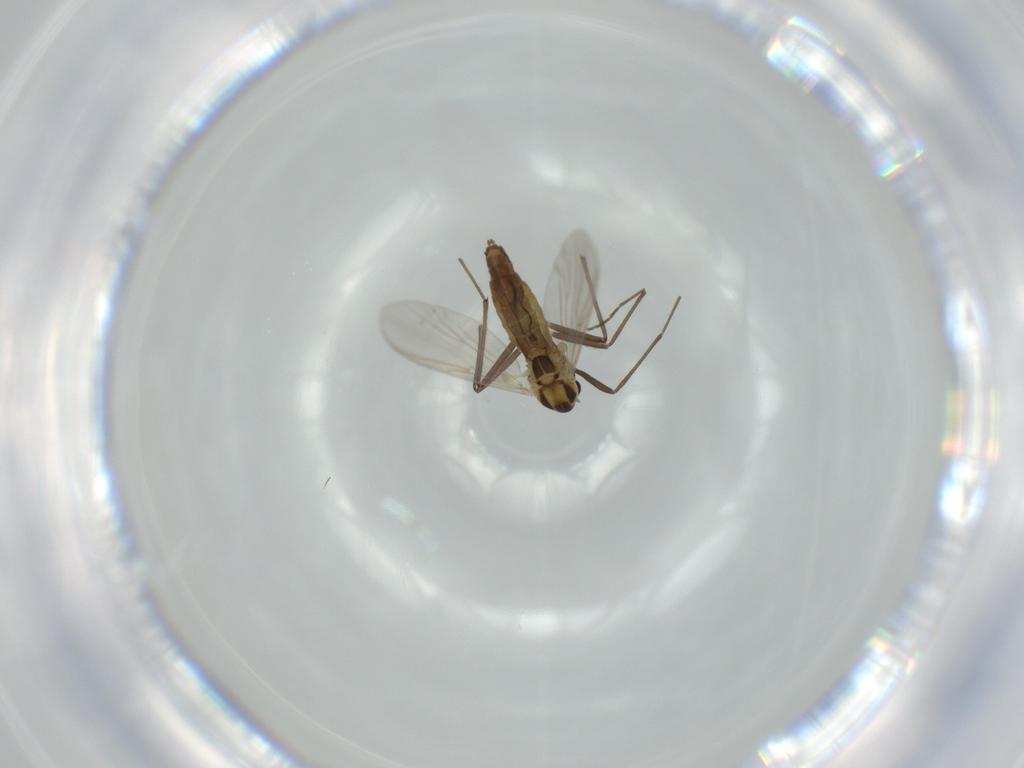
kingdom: Animalia
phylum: Arthropoda
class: Insecta
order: Diptera
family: Chironomidae
